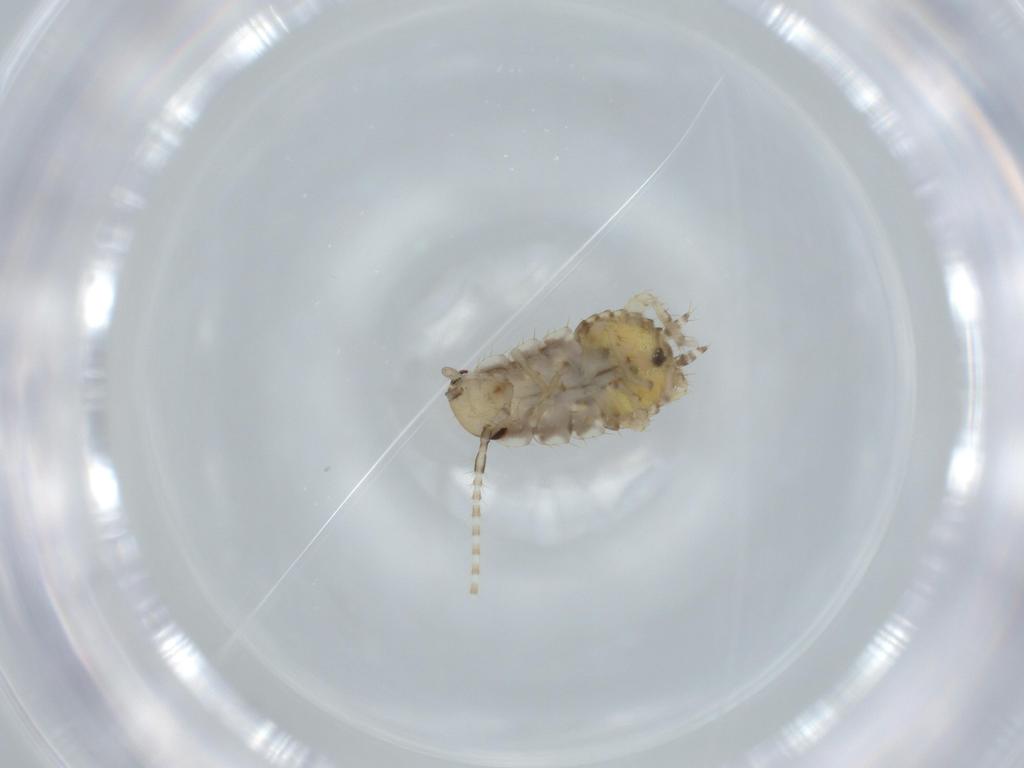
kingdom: Animalia
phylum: Arthropoda
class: Insecta
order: Blattodea
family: Ectobiidae
